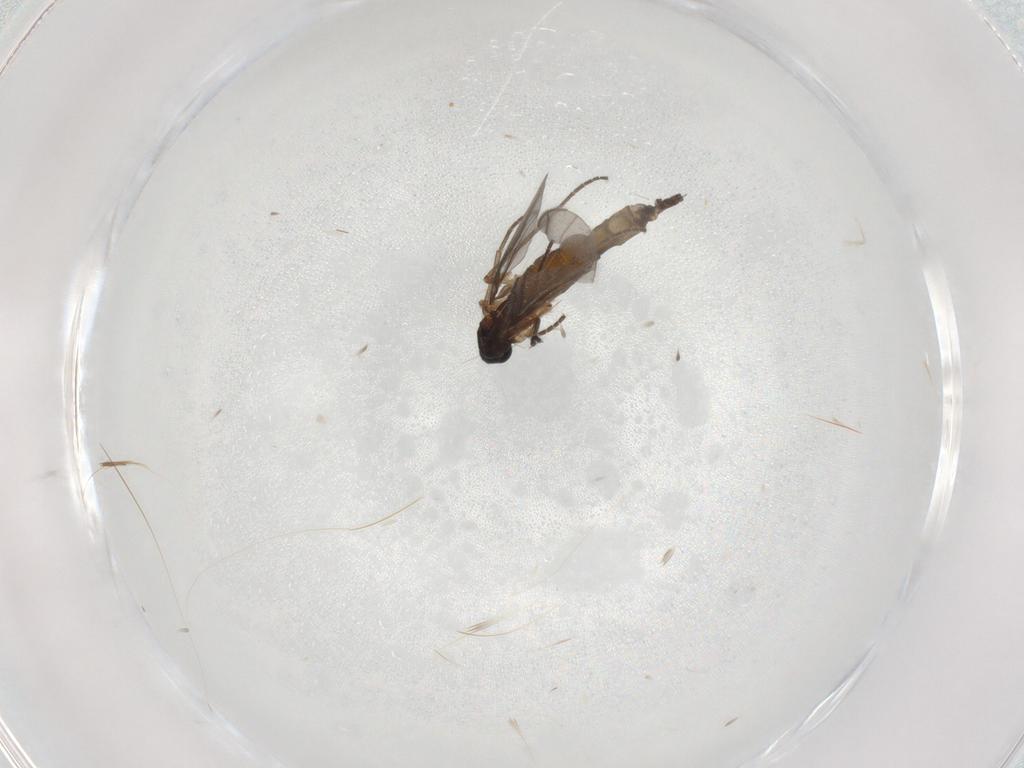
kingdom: Animalia
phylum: Arthropoda
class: Insecta
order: Diptera
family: Sciaridae
